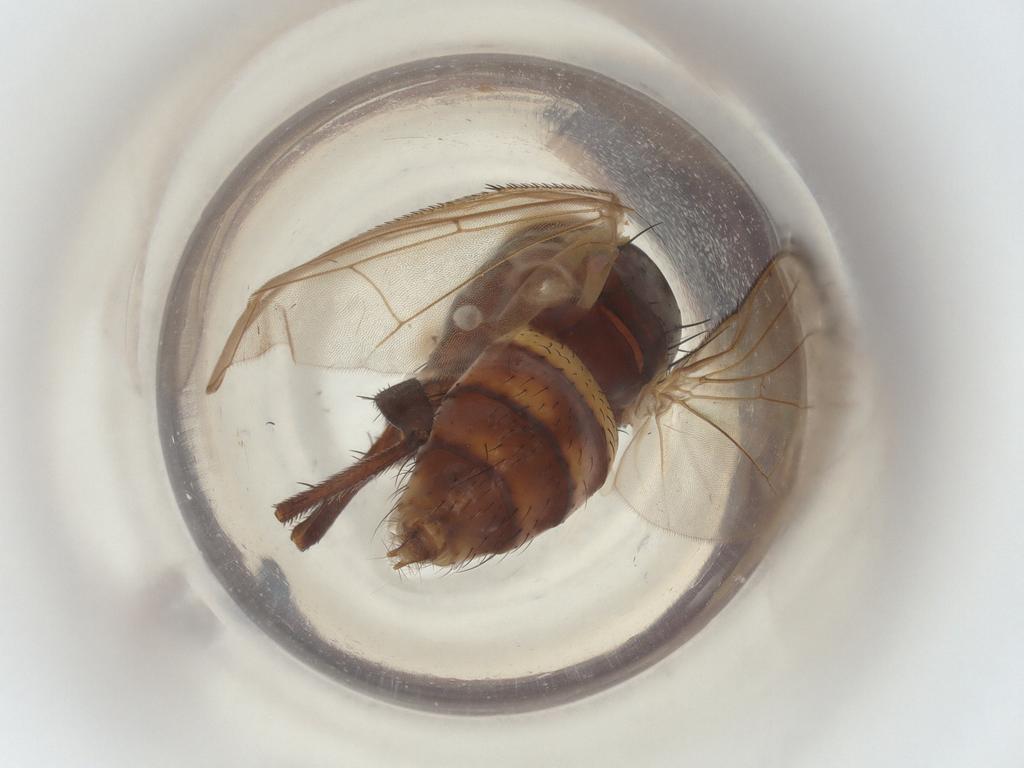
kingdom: Animalia
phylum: Arthropoda
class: Insecta
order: Diptera
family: Anthomyiidae
